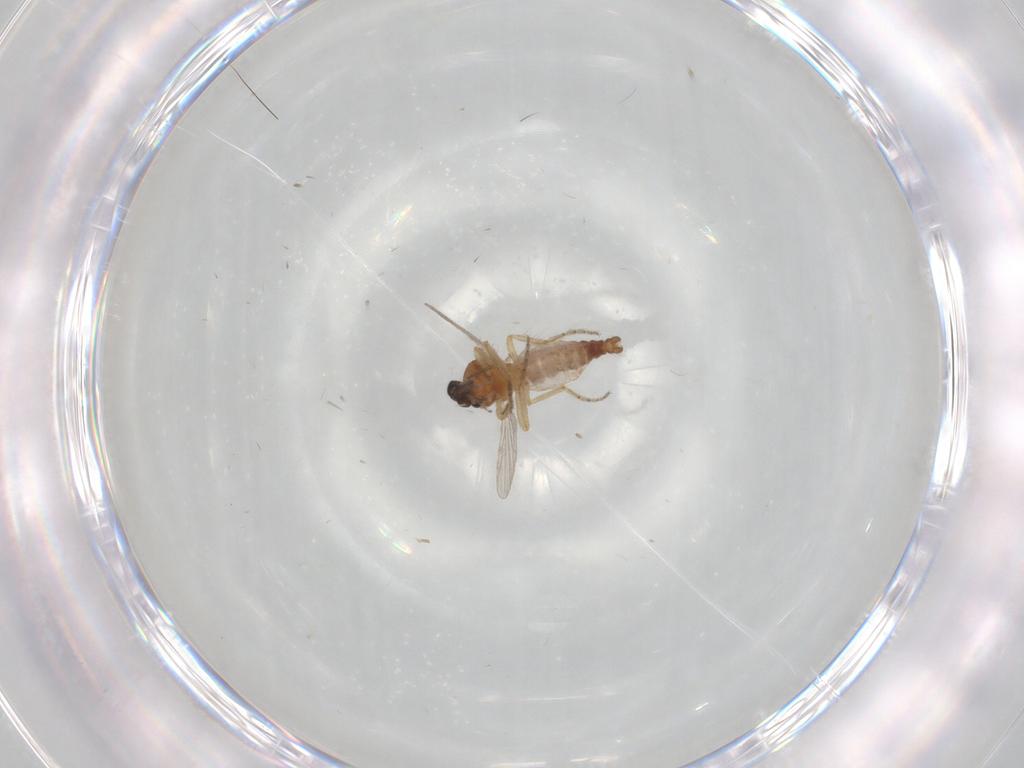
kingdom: Animalia
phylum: Arthropoda
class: Insecta
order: Diptera
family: Ceratopogonidae
